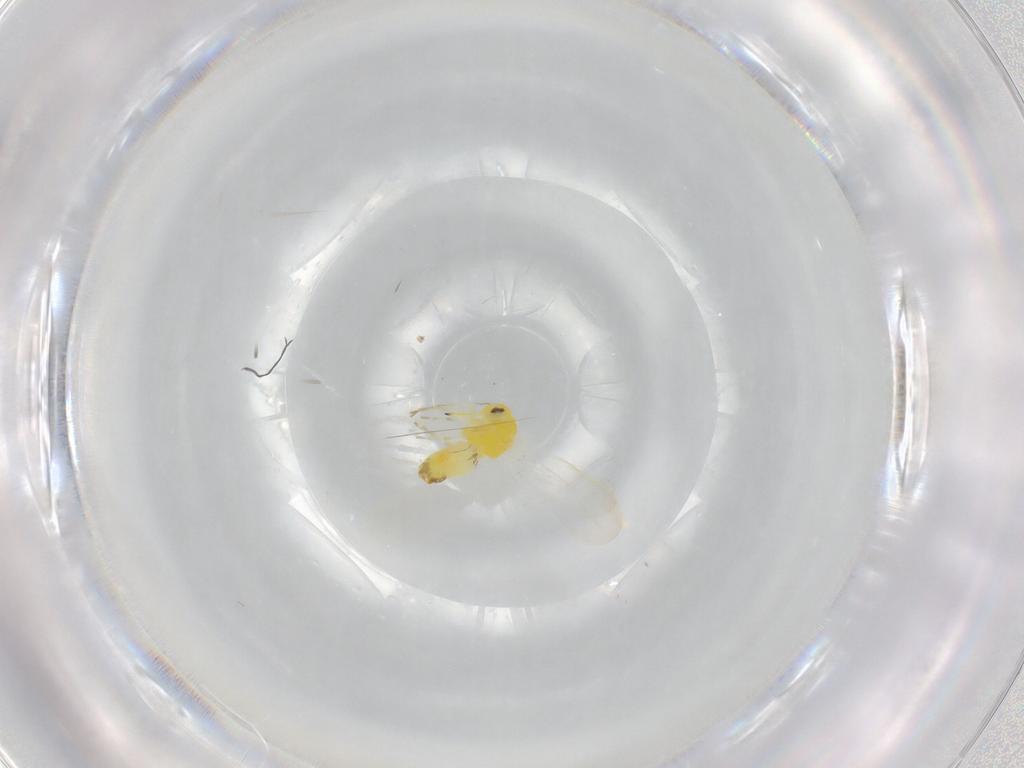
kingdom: Animalia
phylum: Arthropoda
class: Insecta
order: Hemiptera
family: Aleyrodidae
